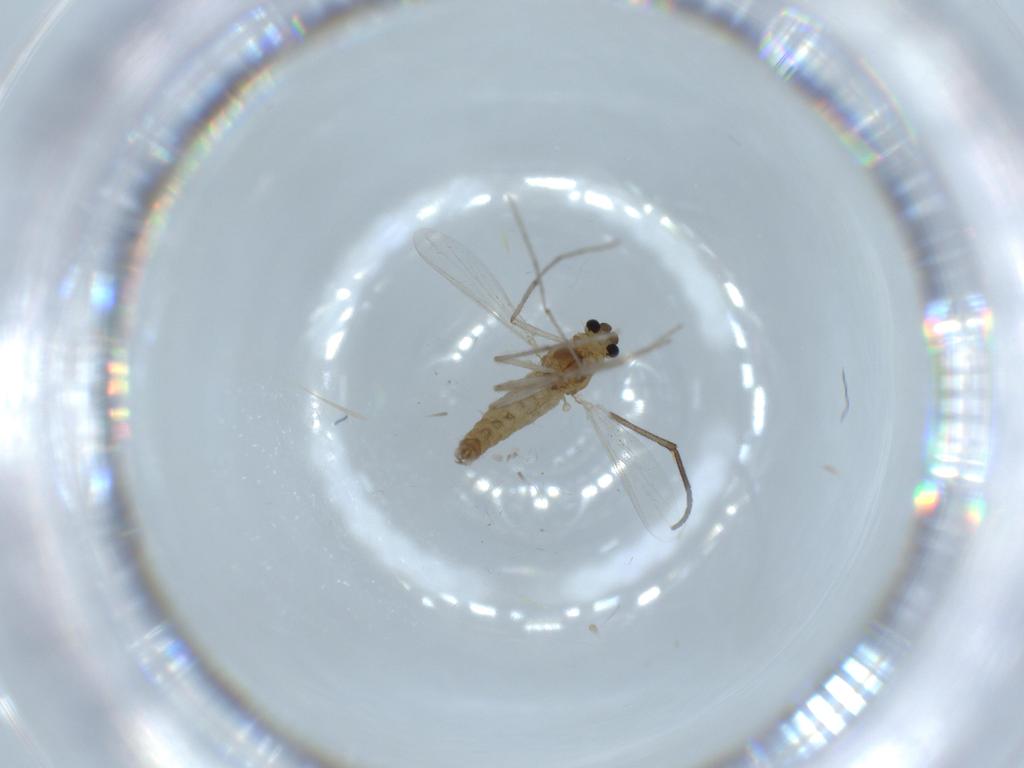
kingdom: Animalia
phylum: Arthropoda
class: Insecta
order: Diptera
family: Chironomidae
